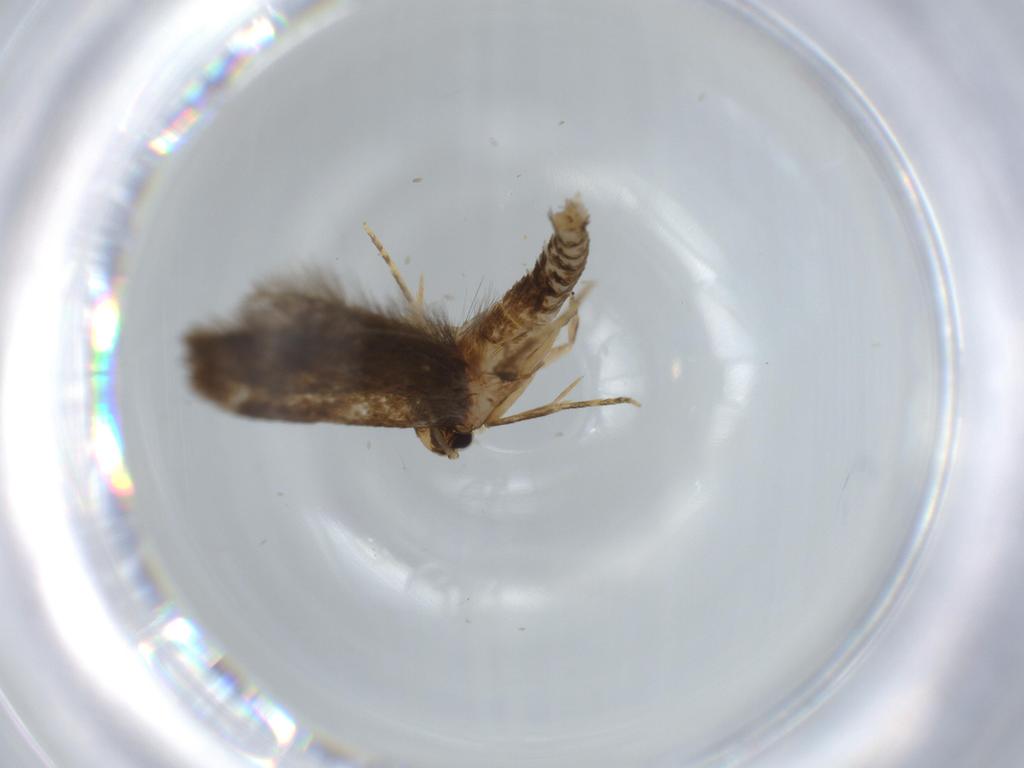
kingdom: Animalia
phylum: Arthropoda
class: Insecta
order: Lepidoptera
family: Tineidae
